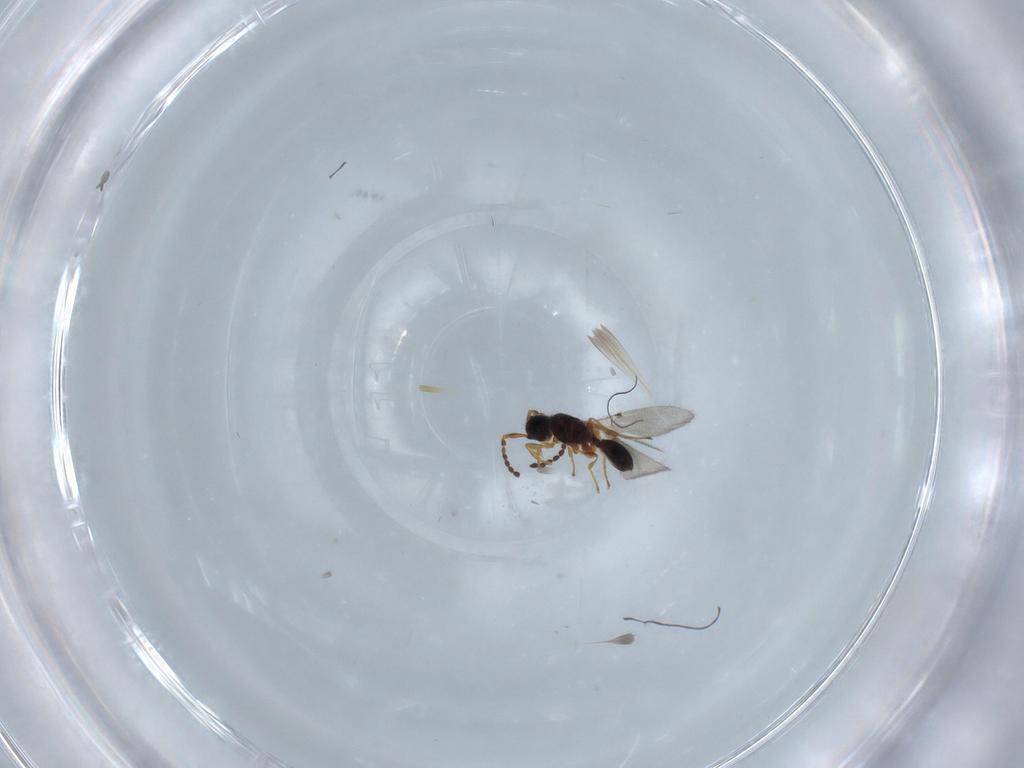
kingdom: Animalia
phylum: Arthropoda
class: Insecta
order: Hymenoptera
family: Diapriidae
